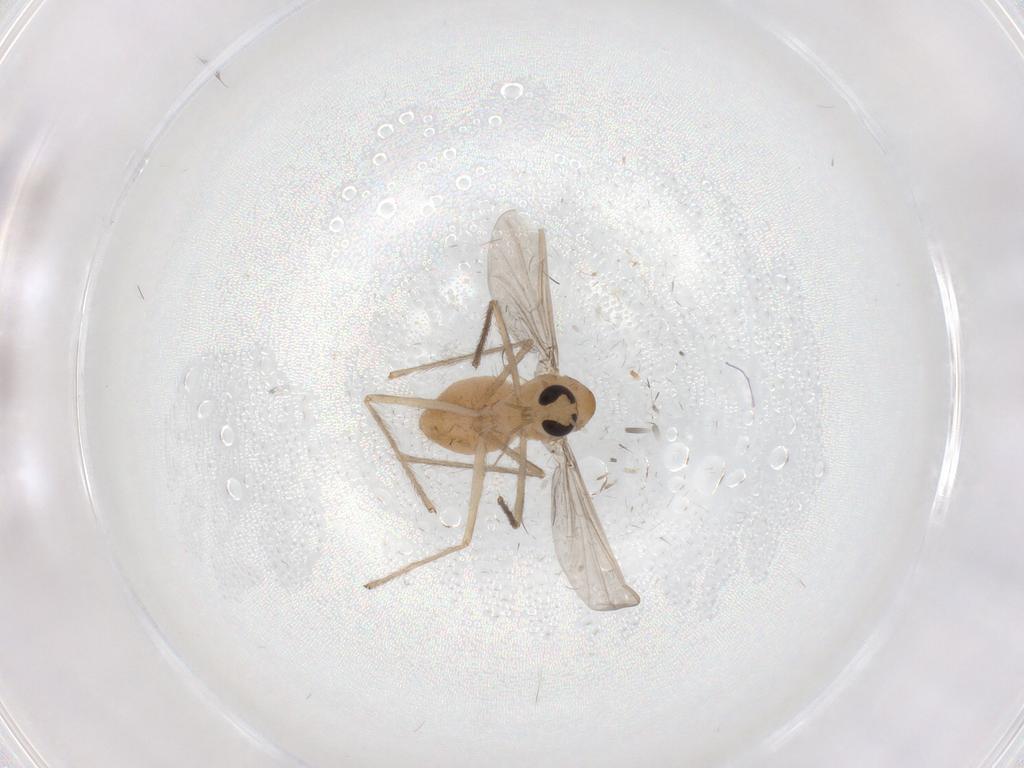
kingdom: Animalia
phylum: Arthropoda
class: Insecta
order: Diptera
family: Chironomidae
